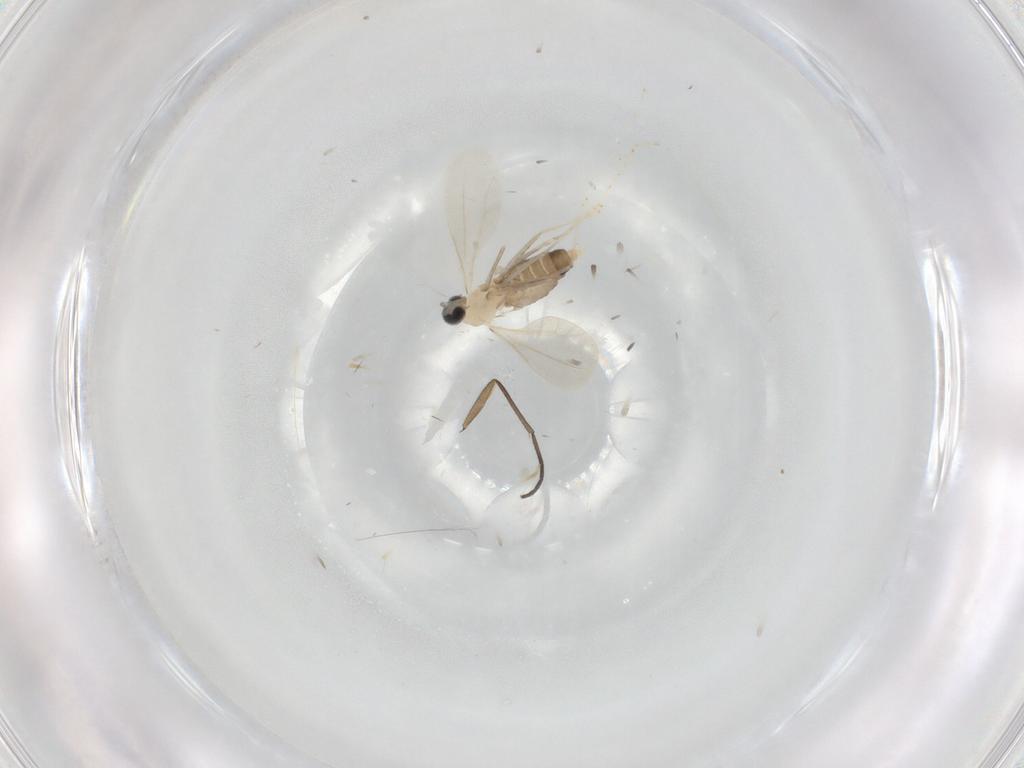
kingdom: Animalia
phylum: Arthropoda
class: Insecta
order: Diptera
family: Cecidomyiidae
